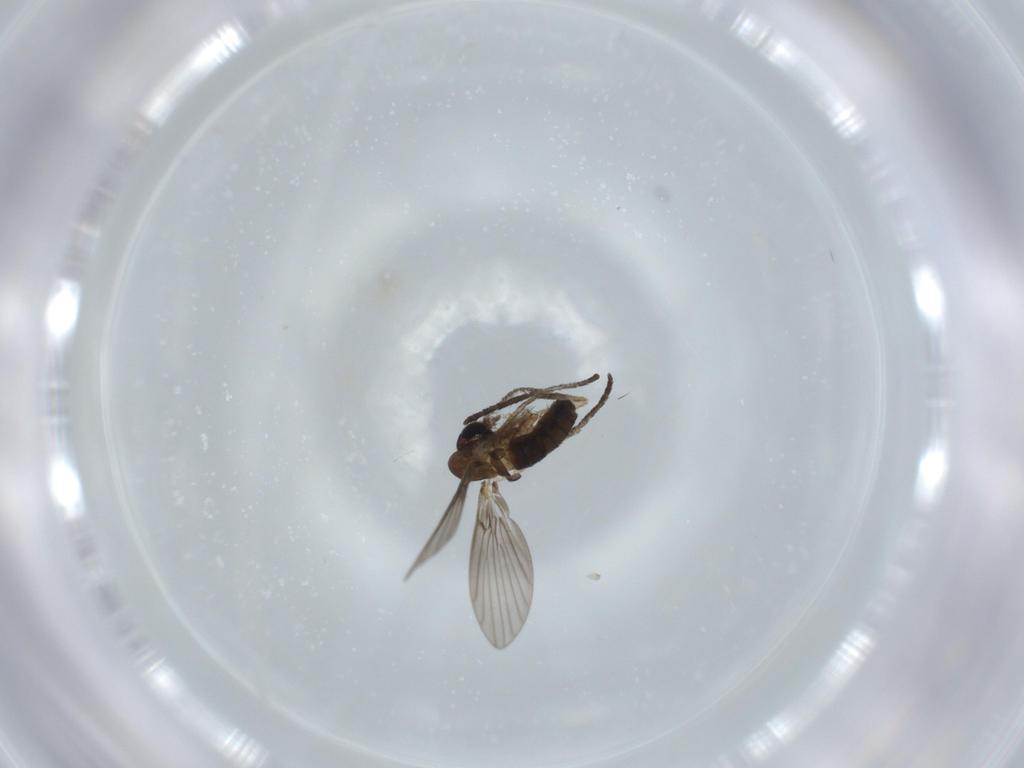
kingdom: Animalia
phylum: Arthropoda
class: Insecta
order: Diptera
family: Psychodidae
